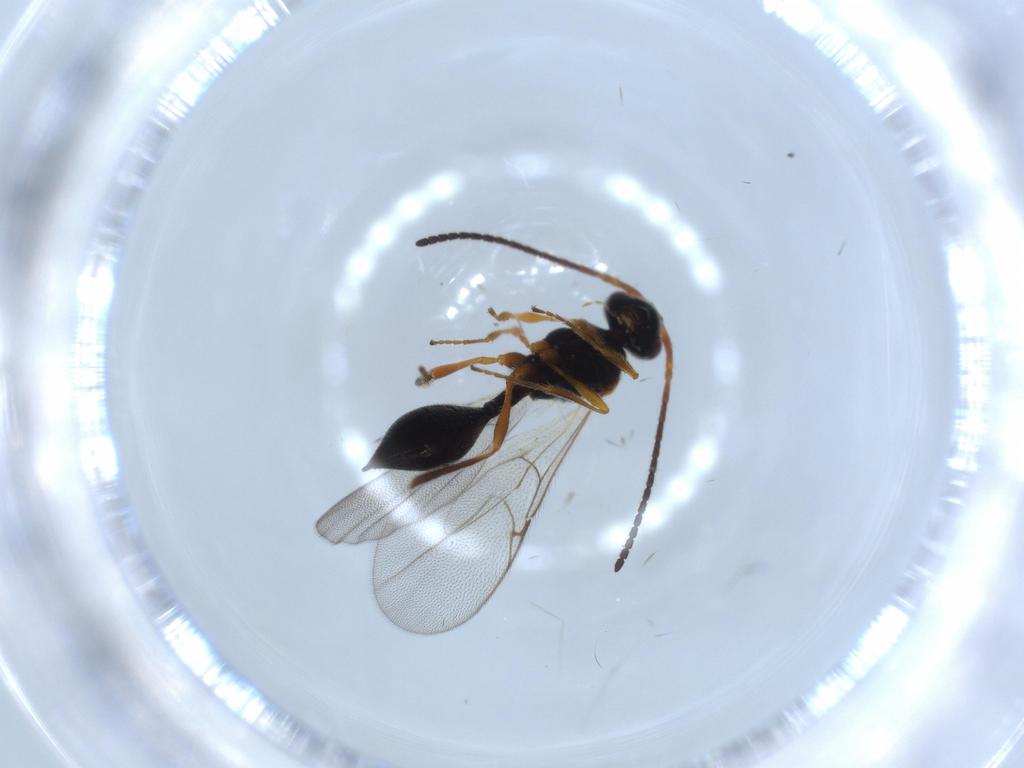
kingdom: Animalia
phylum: Arthropoda
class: Insecta
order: Hymenoptera
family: Diapriidae
